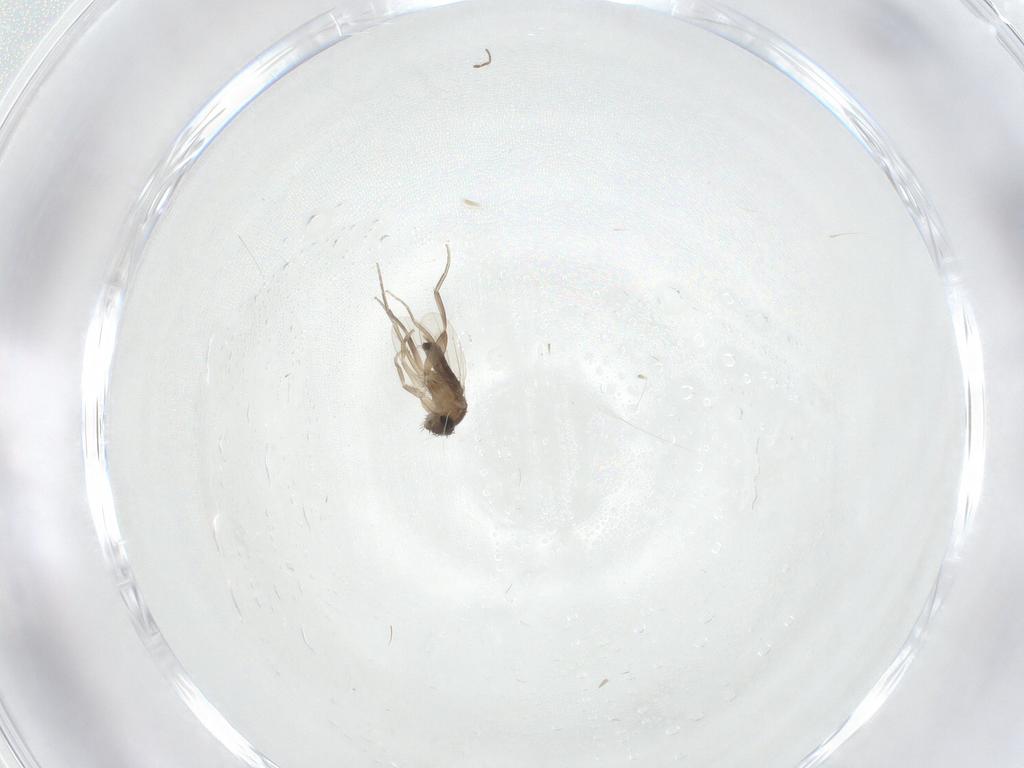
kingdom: Animalia
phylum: Arthropoda
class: Insecta
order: Diptera
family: Phoridae
